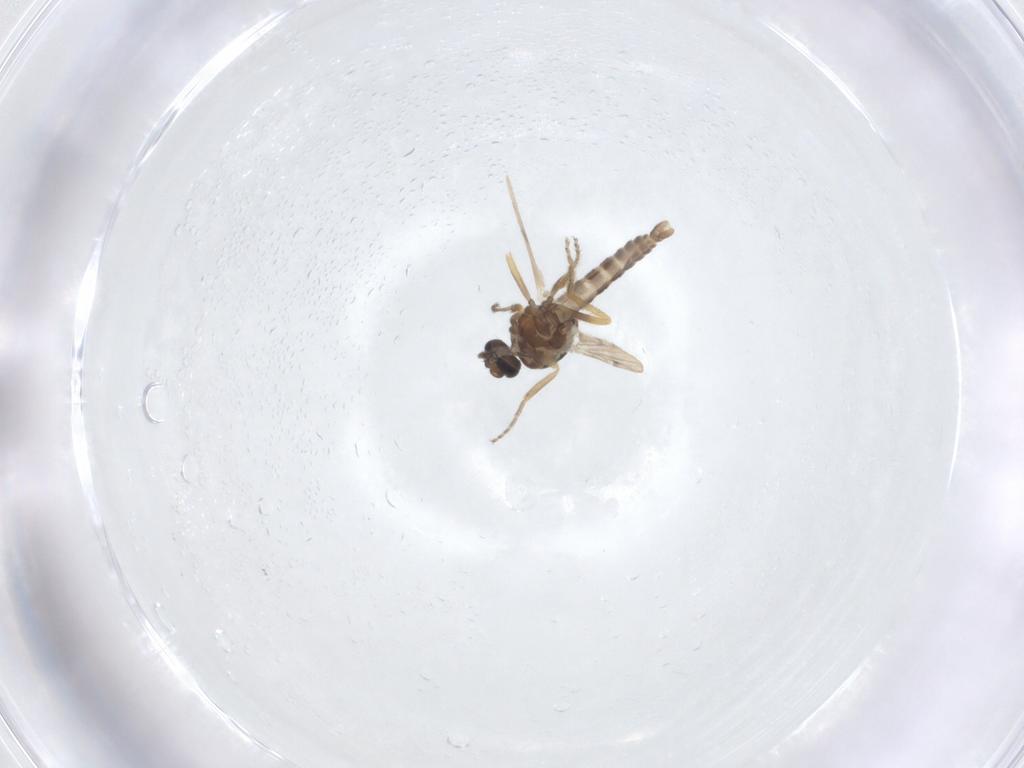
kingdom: Animalia
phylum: Arthropoda
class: Insecta
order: Diptera
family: Ceratopogonidae
